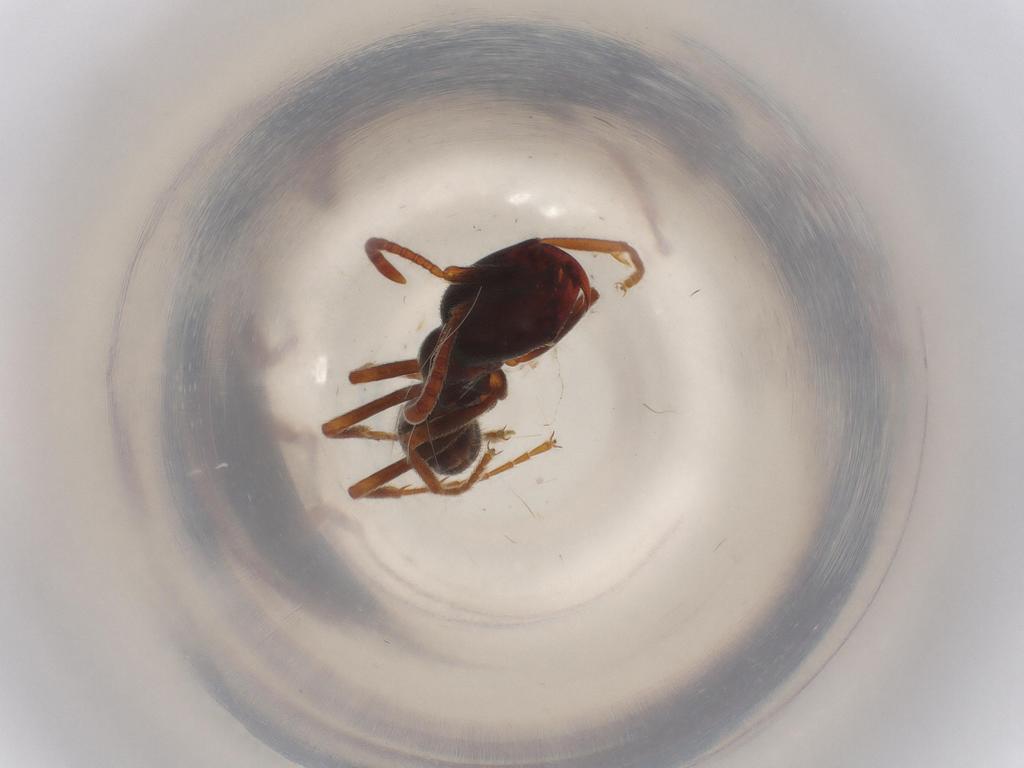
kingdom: Animalia
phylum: Arthropoda
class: Insecta
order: Hymenoptera
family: Formicidae
